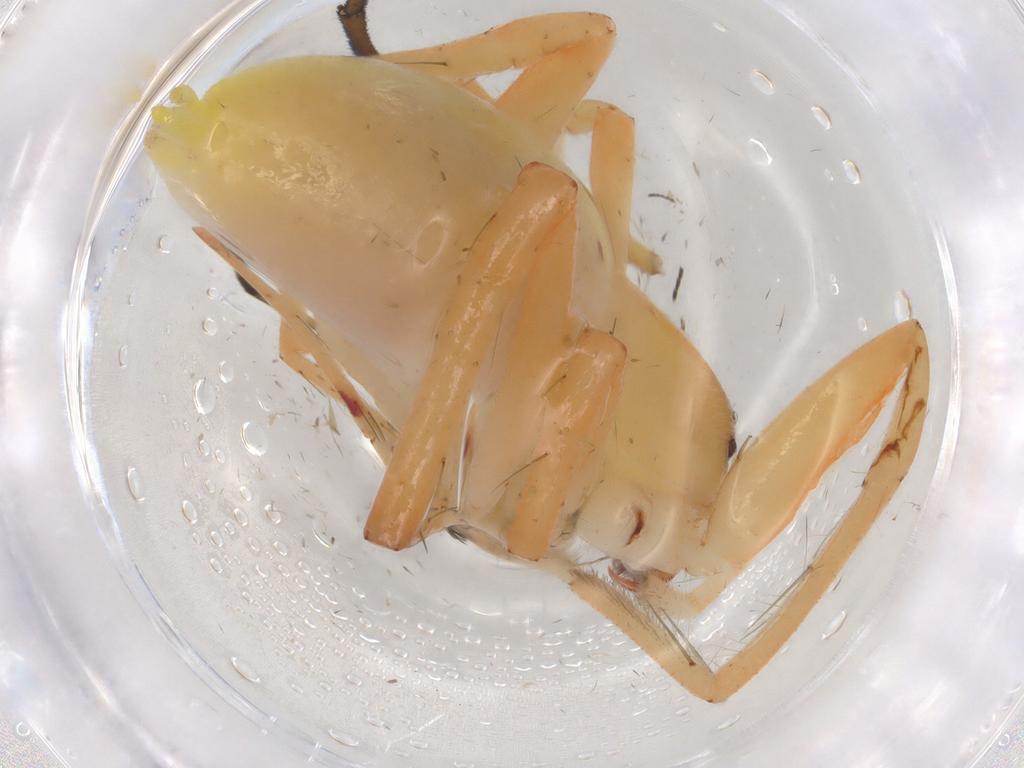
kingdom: Animalia
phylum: Arthropoda
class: Arachnida
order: Araneae
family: Anyphaenidae
